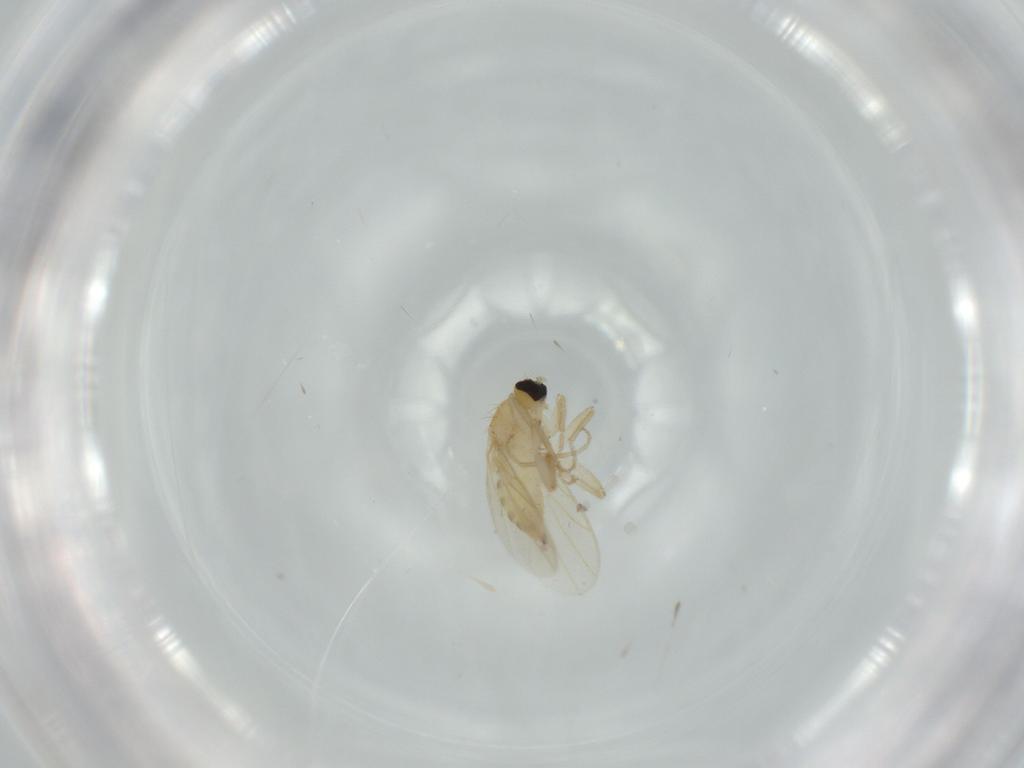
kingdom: Animalia
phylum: Arthropoda
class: Insecta
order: Diptera
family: Hybotidae
